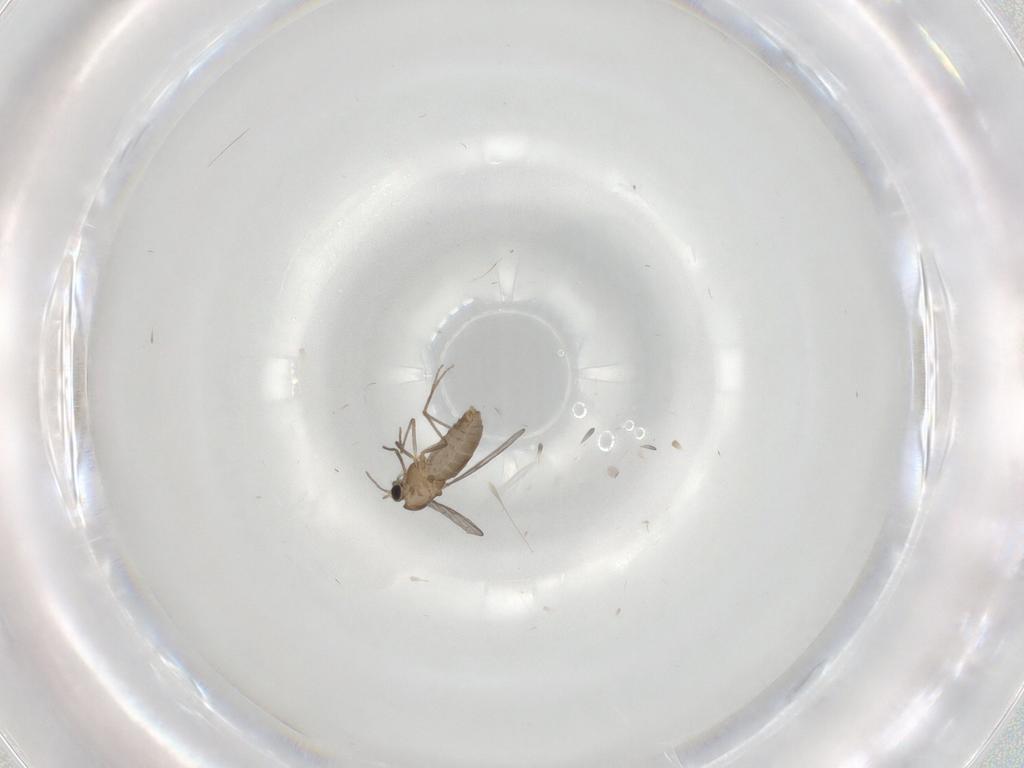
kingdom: Animalia
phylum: Arthropoda
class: Insecta
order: Diptera
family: Chironomidae
